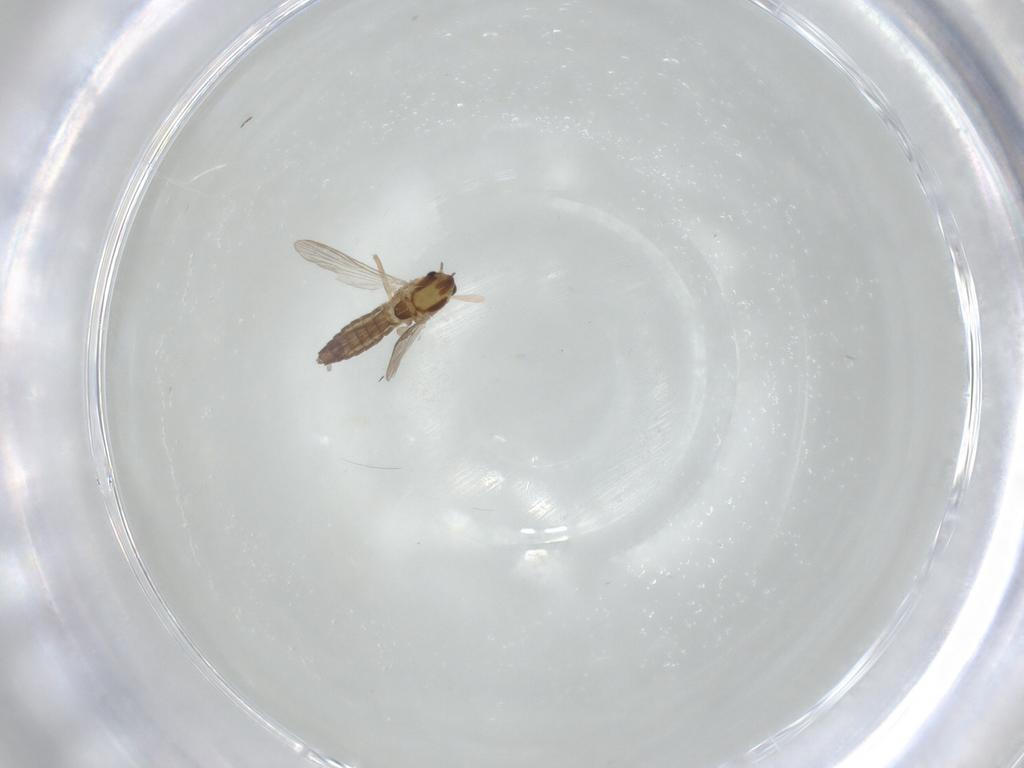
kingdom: Animalia
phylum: Arthropoda
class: Insecta
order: Diptera
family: Chironomidae
